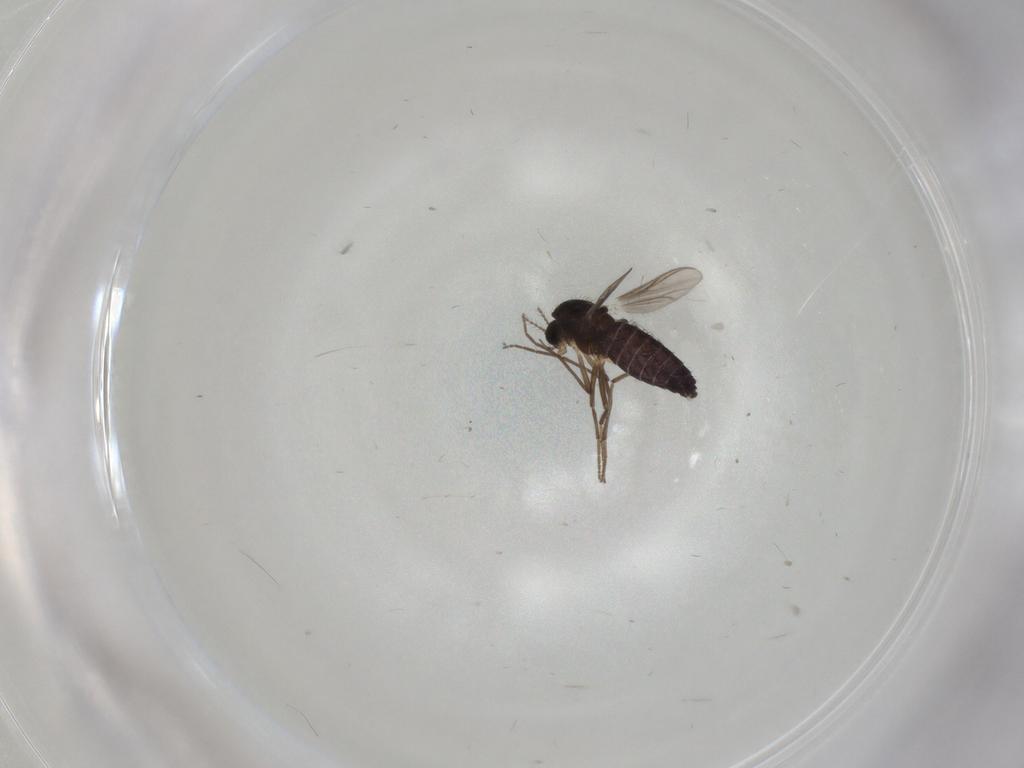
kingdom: Animalia
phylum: Arthropoda
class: Insecta
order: Diptera
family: Chironomidae
